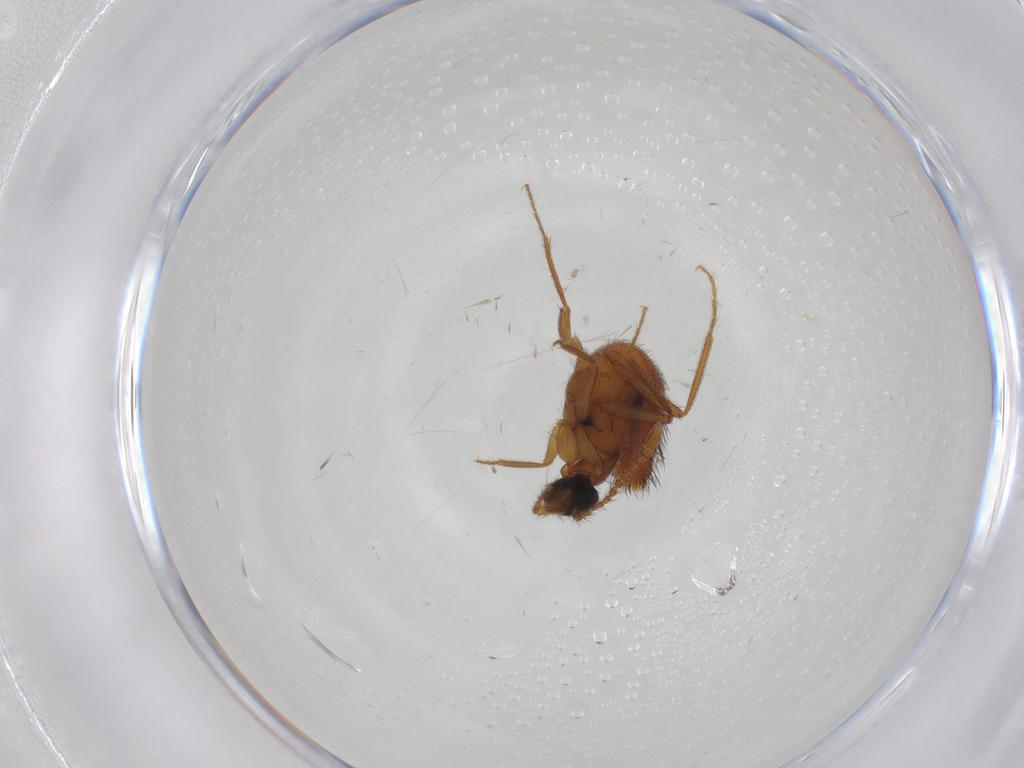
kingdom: Animalia
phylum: Arthropoda
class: Insecta
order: Coleoptera
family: Staphylinidae
